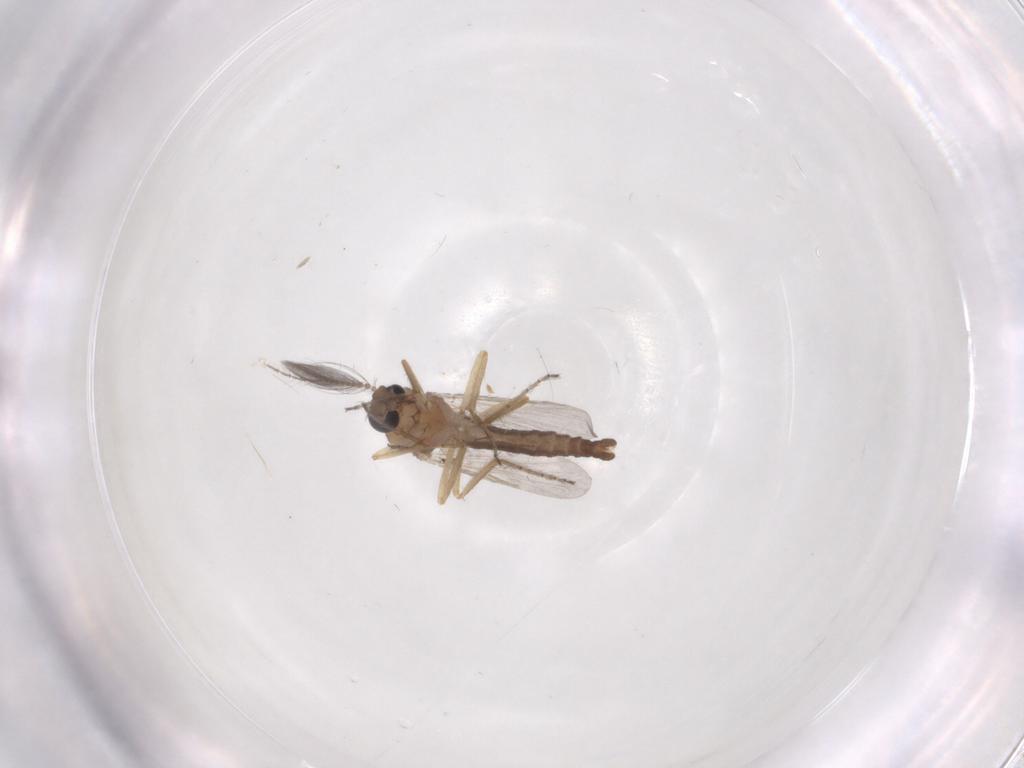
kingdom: Animalia
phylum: Arthropoda
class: Insecta
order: Diptera
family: Ceratopogonidae
